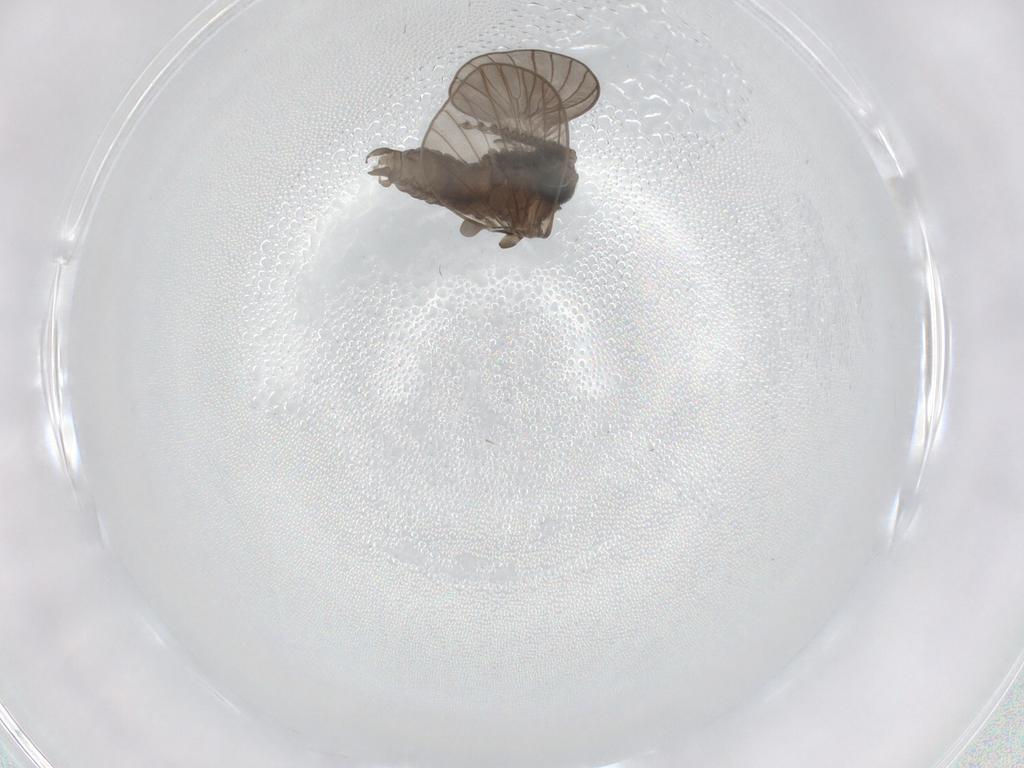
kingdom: Animalia
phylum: Arthropoda
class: Insecta
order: Diptera
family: Psychodidae
